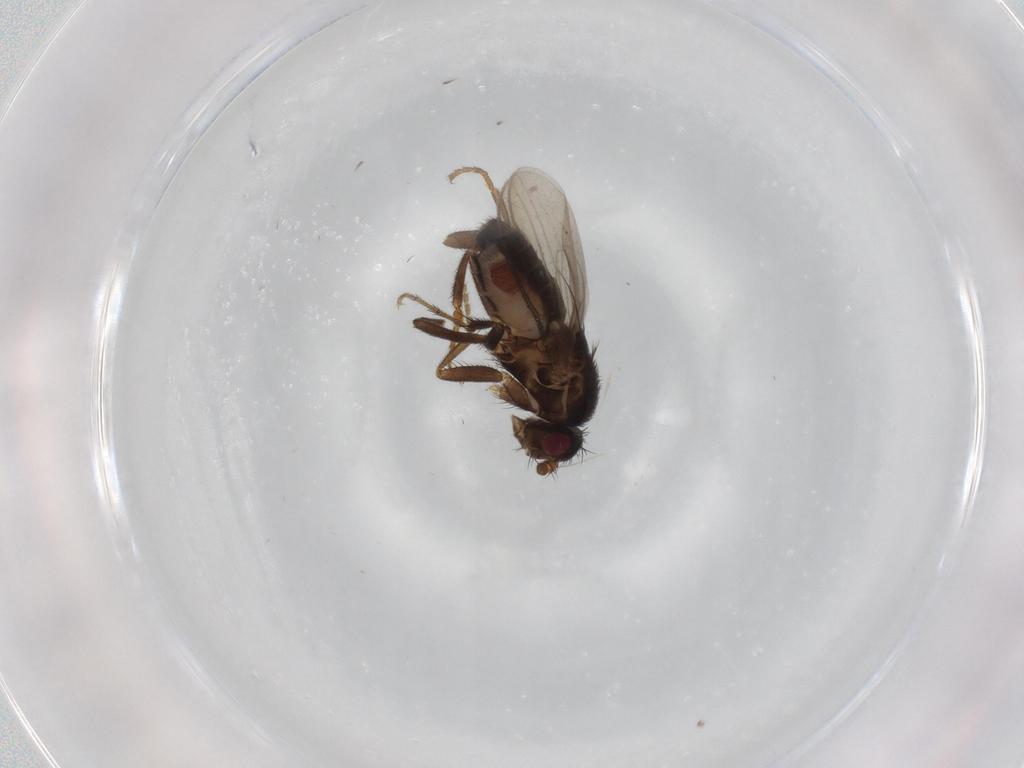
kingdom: Animalia
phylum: Arthropoda
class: Insecta
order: Diptera
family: Sphaeroceridae
